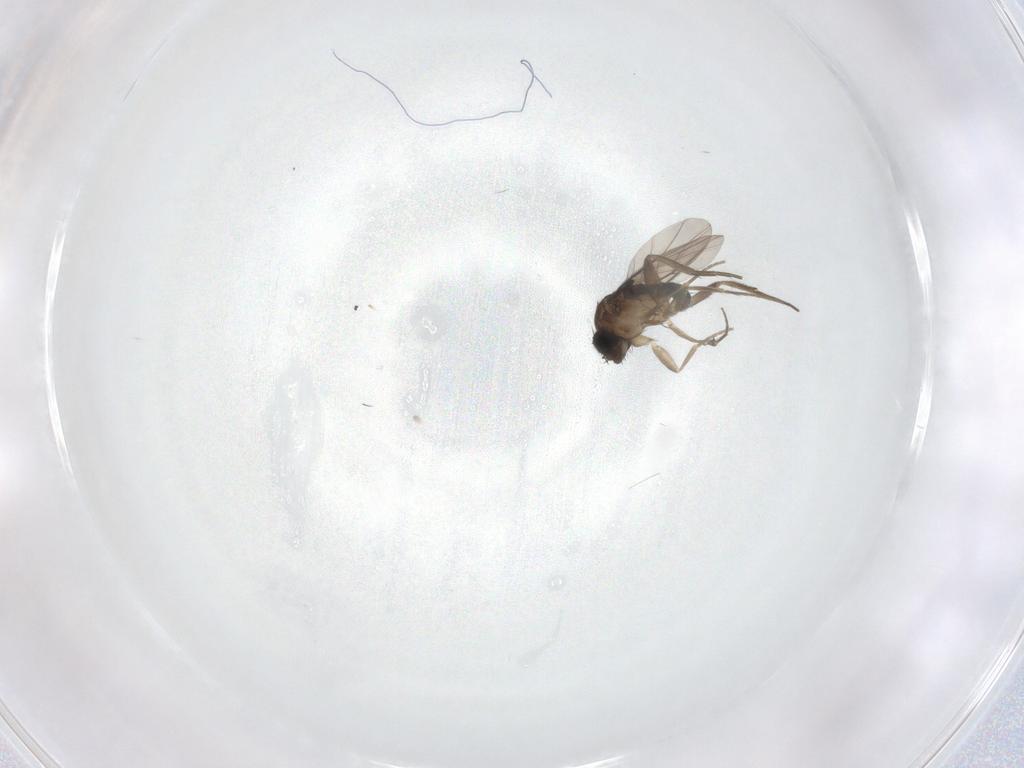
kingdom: Animalia
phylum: Arthropoda
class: Insecta
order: Diptera
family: Phoridae
